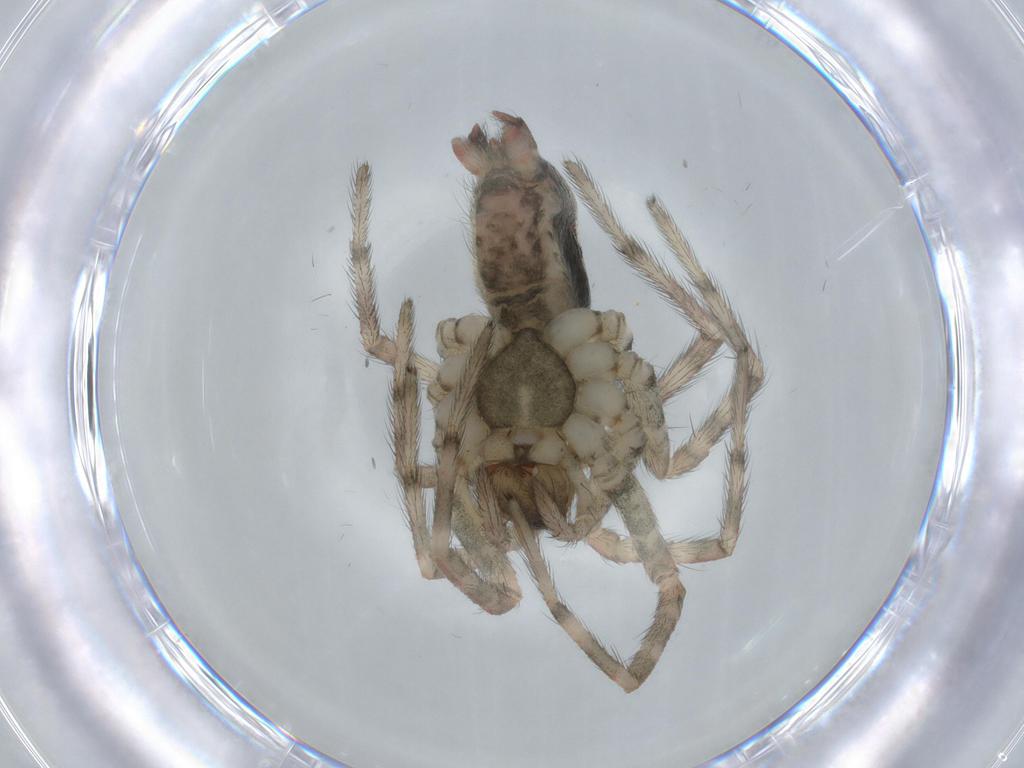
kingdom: Animalia
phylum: Arthropoda
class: Arachnida
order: Araneae
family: Agelenidae
